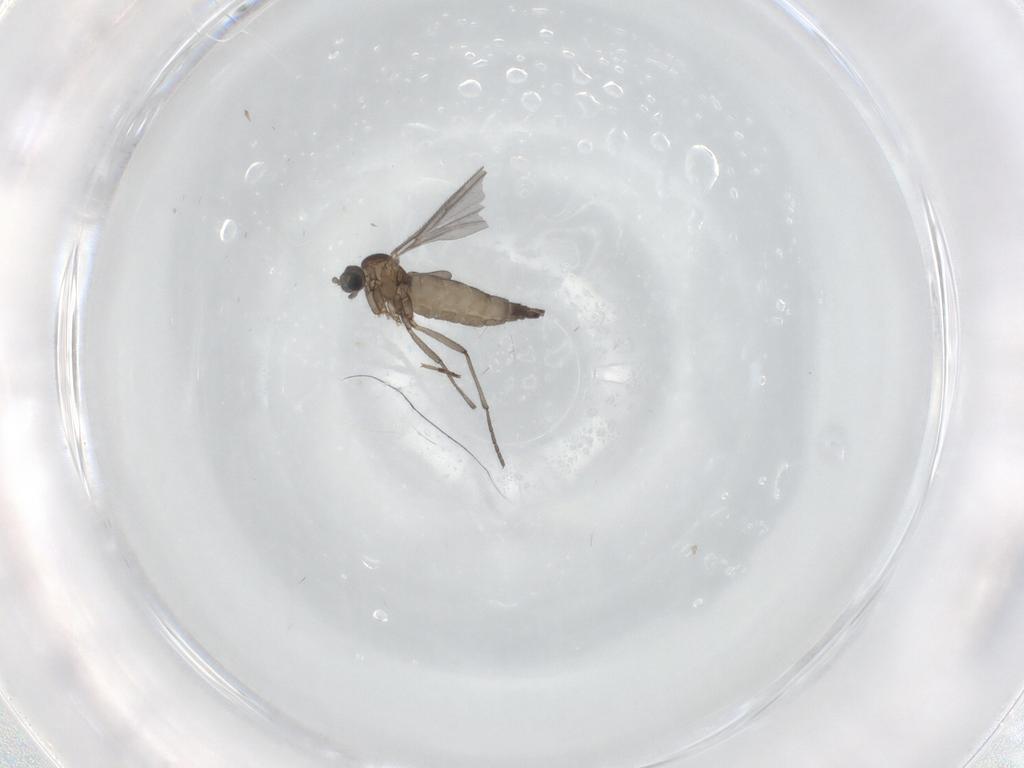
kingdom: Animalia
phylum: Arthropoda
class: Insecta
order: Diptera
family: Sciaridae
